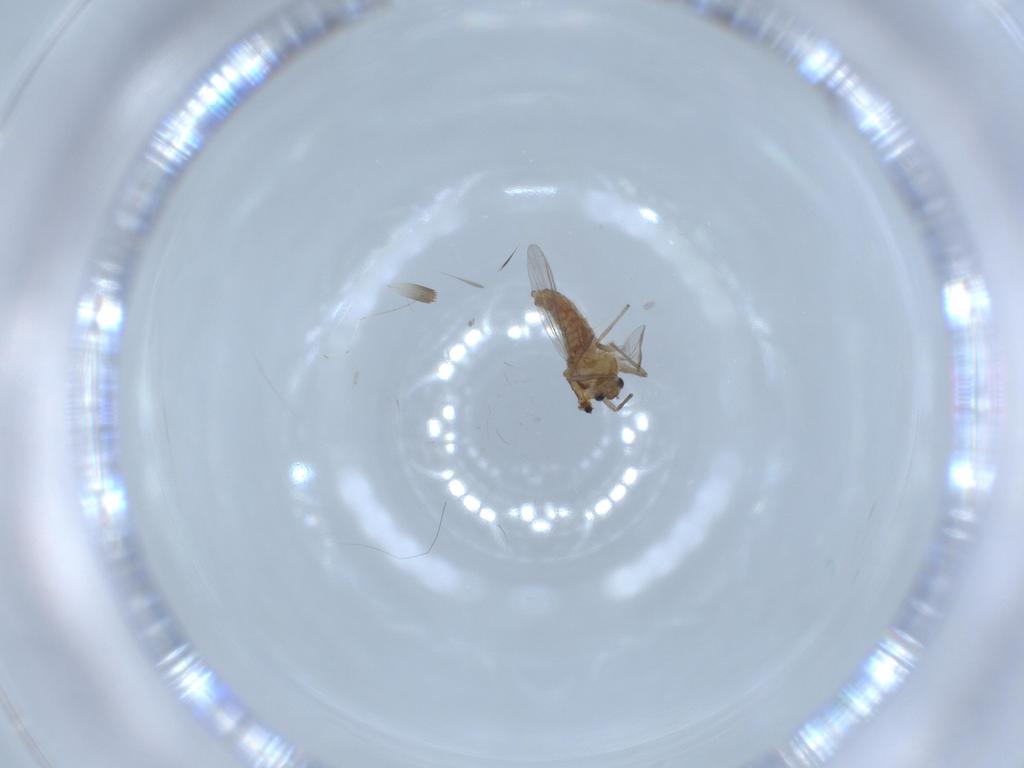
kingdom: Animalia
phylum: Arthropoda
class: Insecta
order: Diptera
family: Chironomidae
